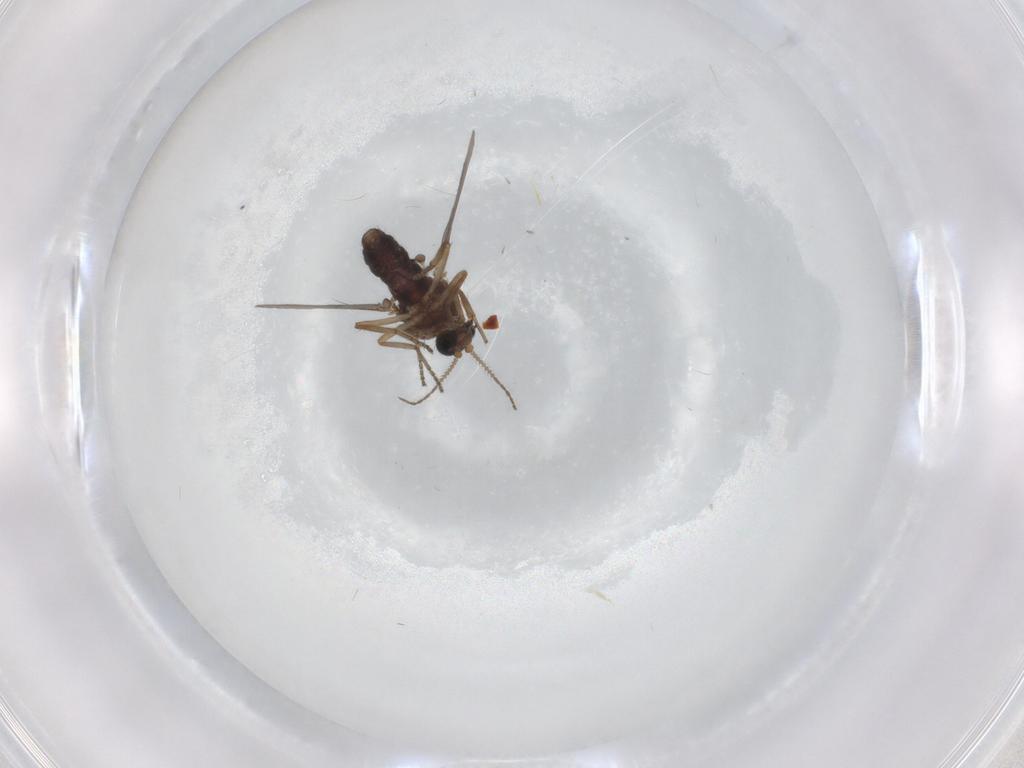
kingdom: Animalia
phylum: Arthropoda
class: Insecta
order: Diptera
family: Ceratopogonidae
